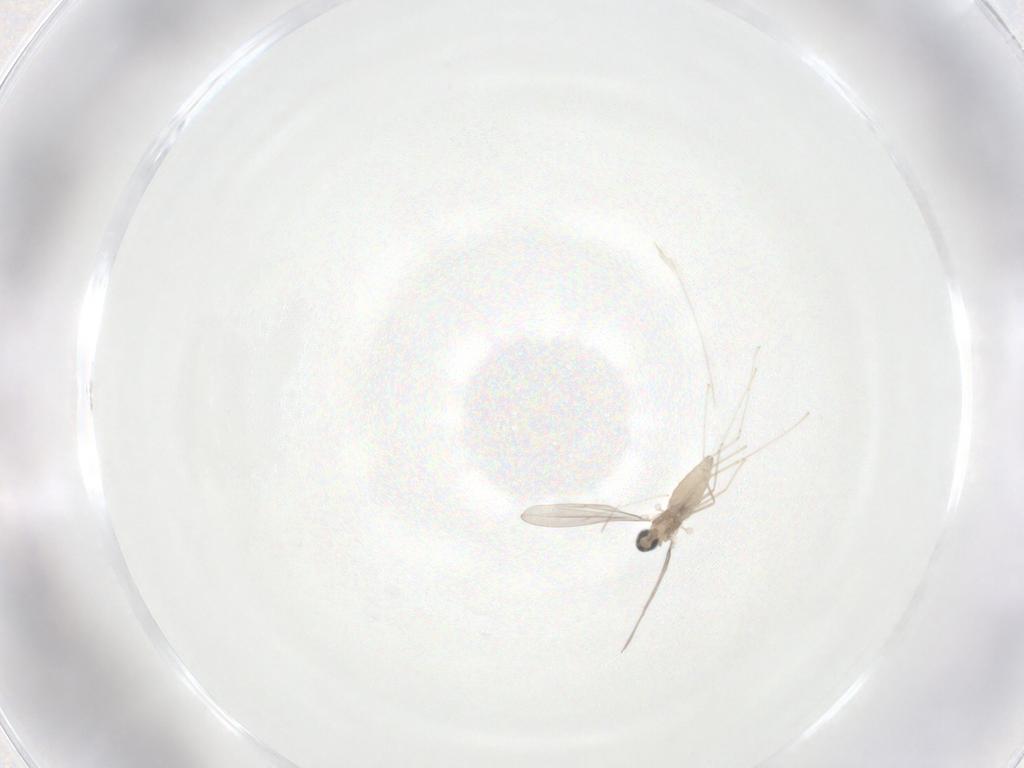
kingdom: Animalia
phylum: Arthropoda
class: Insecta
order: Diptera
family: Cecidomyiidae
